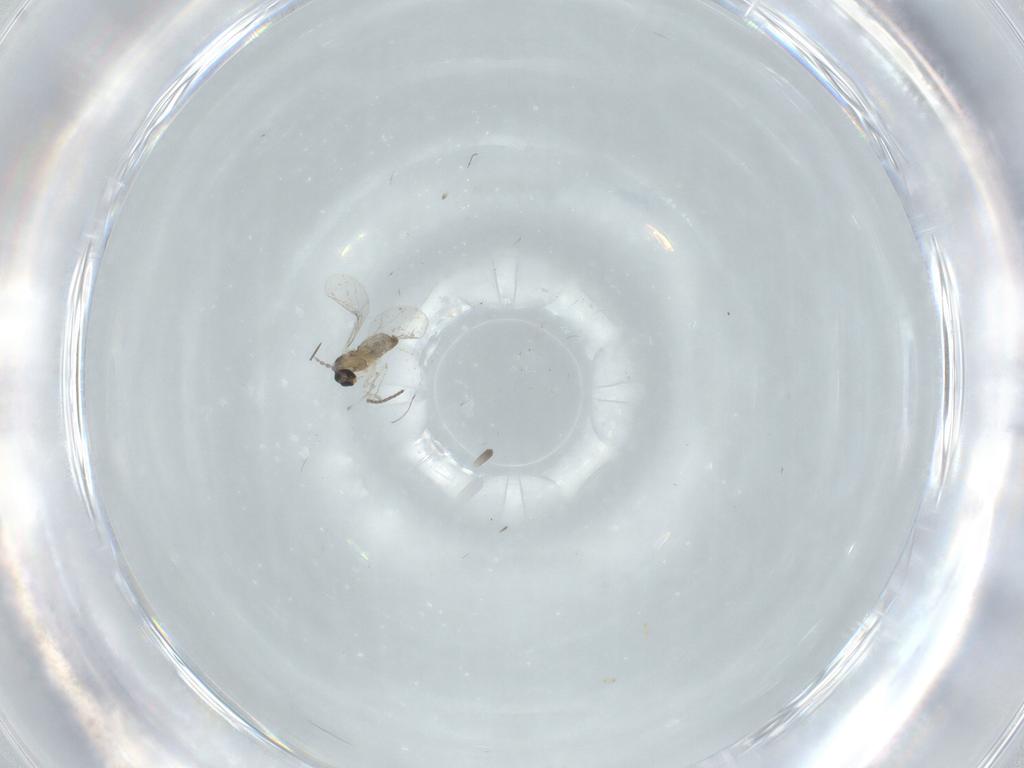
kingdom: Animalia
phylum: Arthropoda
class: Insecta
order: Diptera
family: Cecidomyiidae
